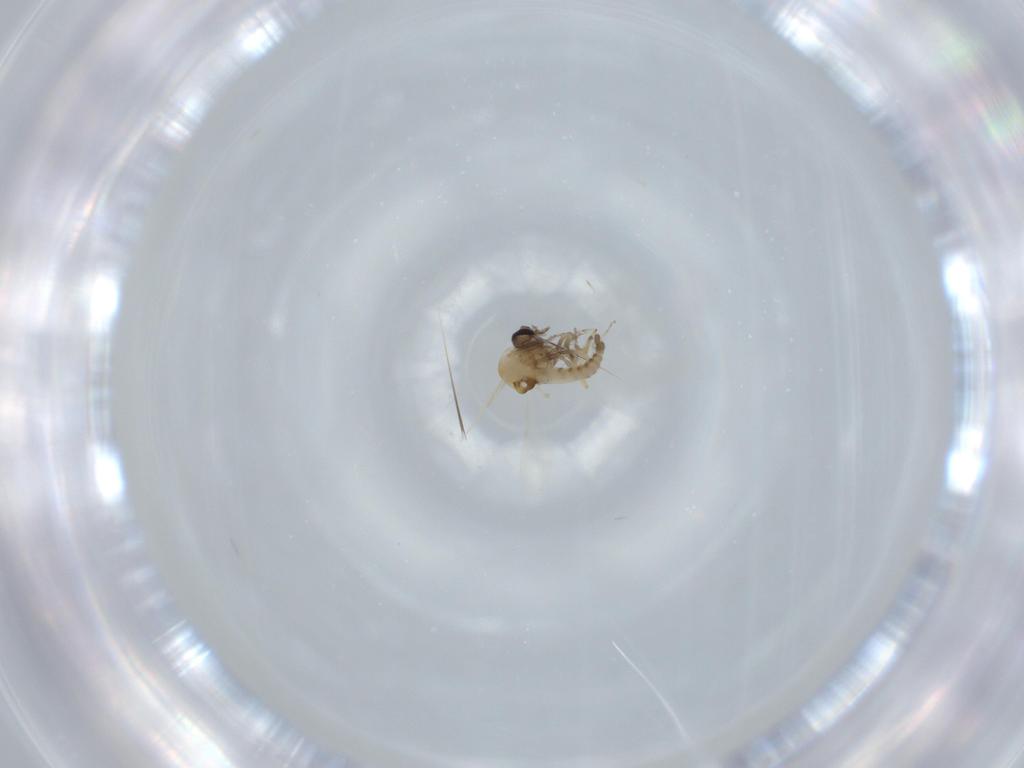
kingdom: Animalia
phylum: Arthropoda
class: Insecta
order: Diptera
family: Ceratopogonidae
